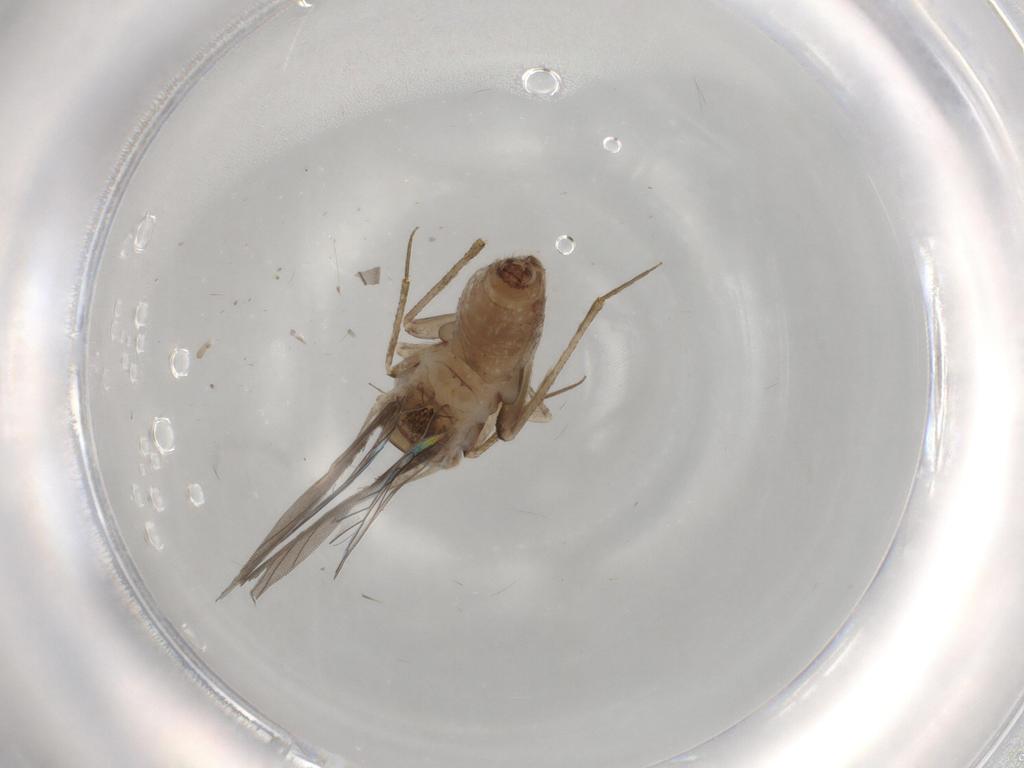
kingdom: Animalia
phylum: Arthropoda
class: Insecta
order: Psocodea
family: Lepidopsocidae
